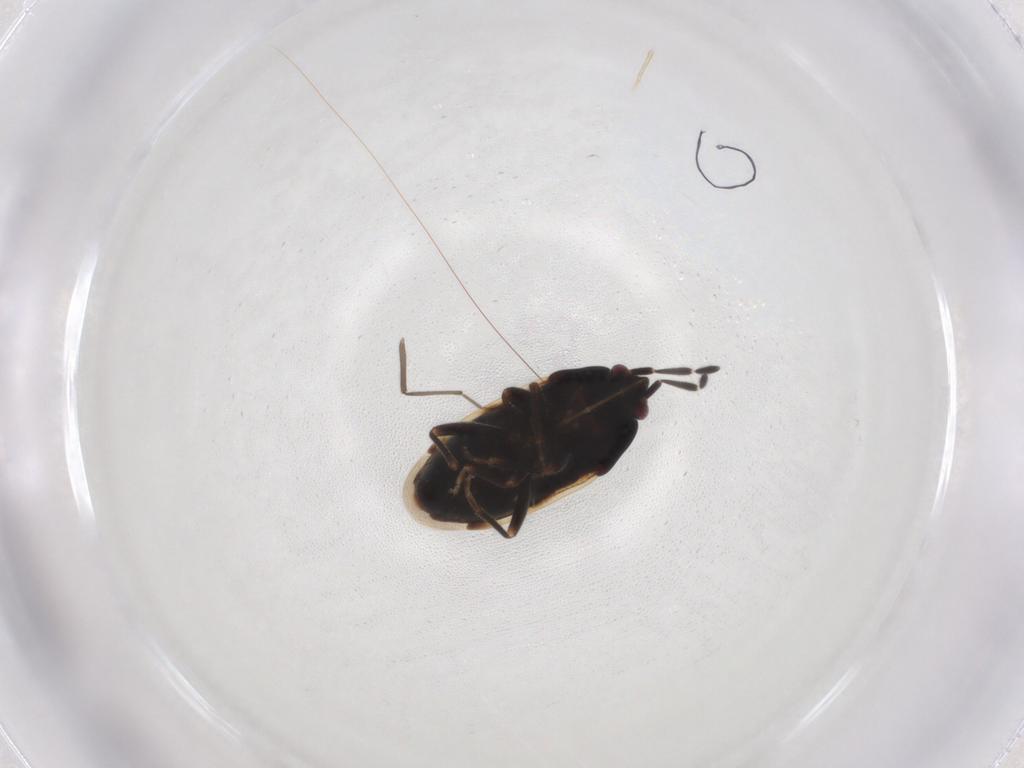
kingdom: Animalia
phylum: Arthropoda
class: Insecta
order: Hemiptera
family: Rhyparochromidae
